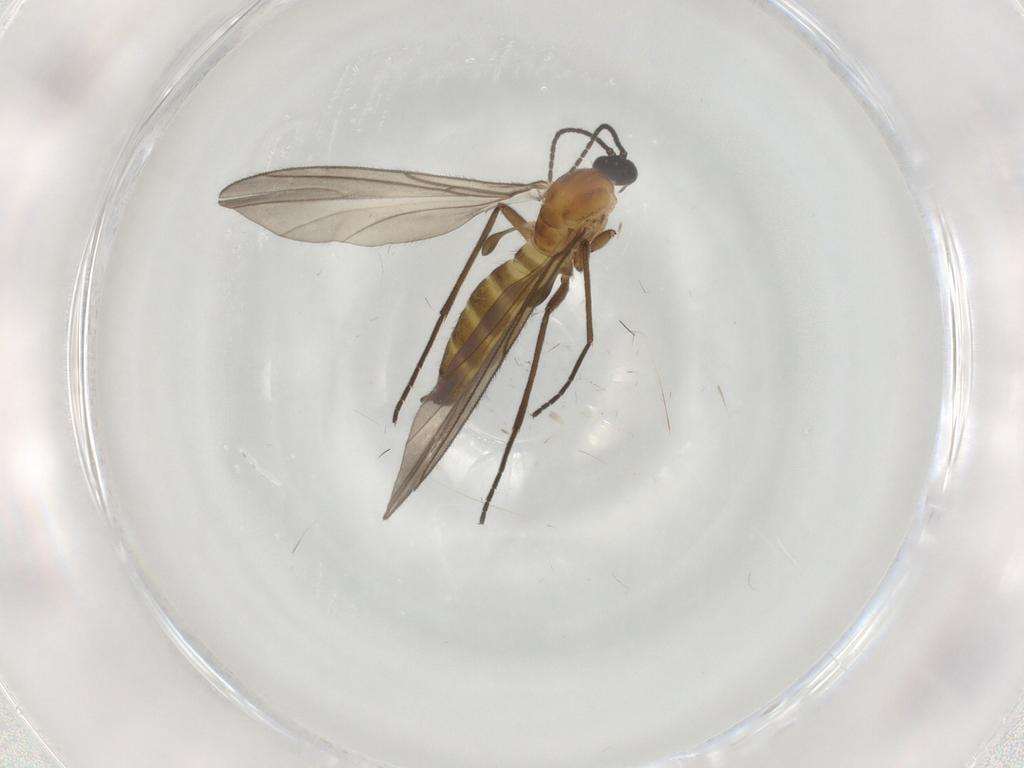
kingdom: Animalia
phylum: Arthropoda
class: Insecta
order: Diptera
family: Sciaridae
